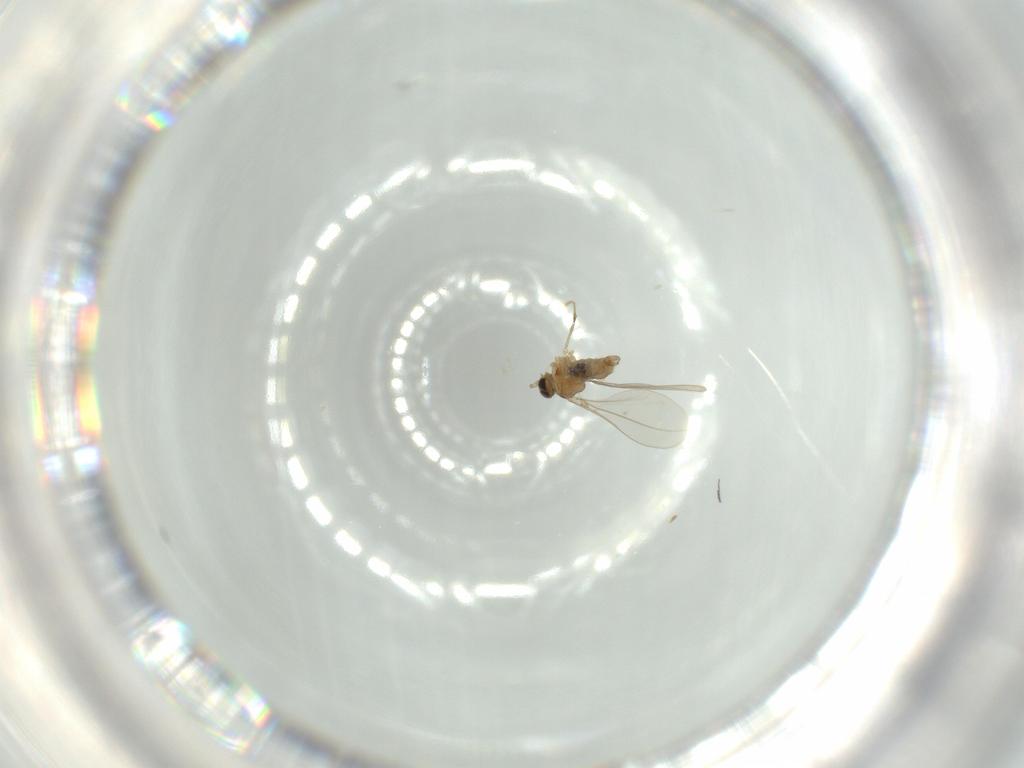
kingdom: Animalia
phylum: Arthropoda
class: Insecta
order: Diptera
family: Cecidomyiidae
